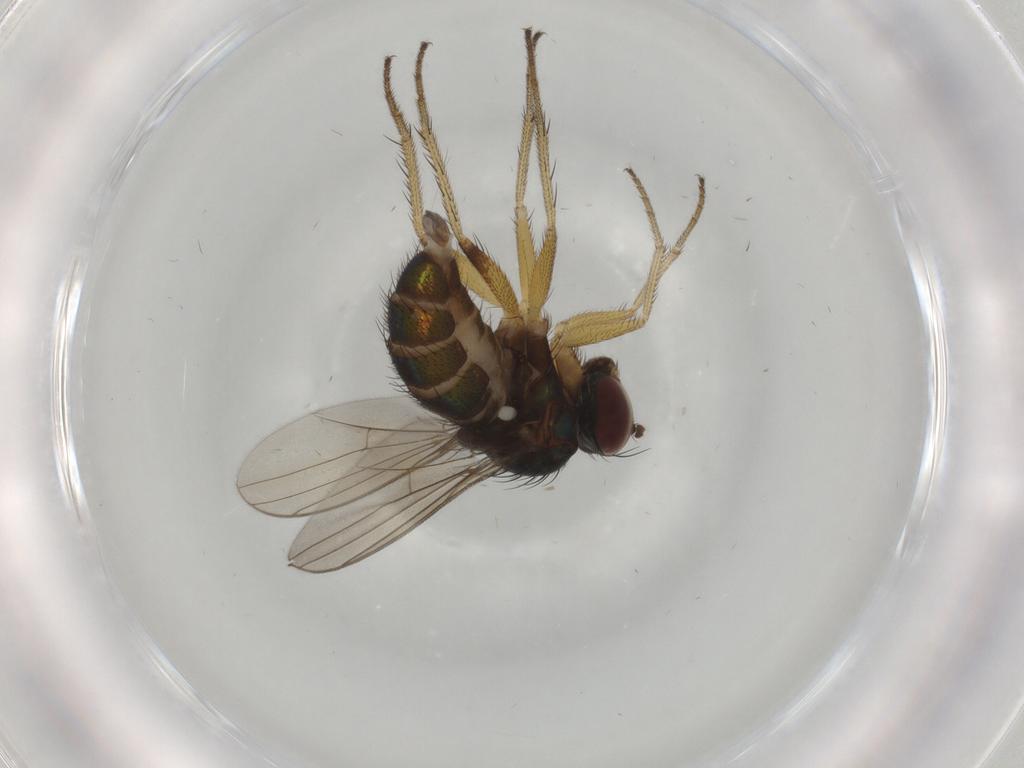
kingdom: Animalia
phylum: Arthropoda
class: Insecta
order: Diptera
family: Dolichopodidae
